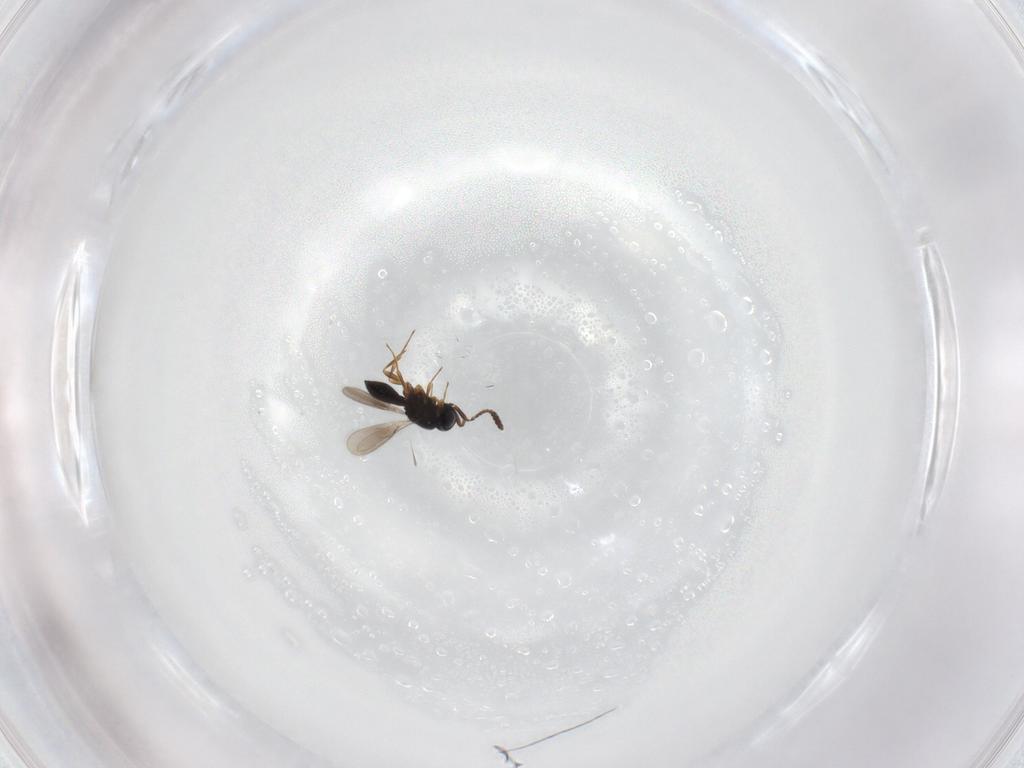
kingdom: Animalia
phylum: Arthropoda
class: Insecta
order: Hymenoptera
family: Scelionidae
